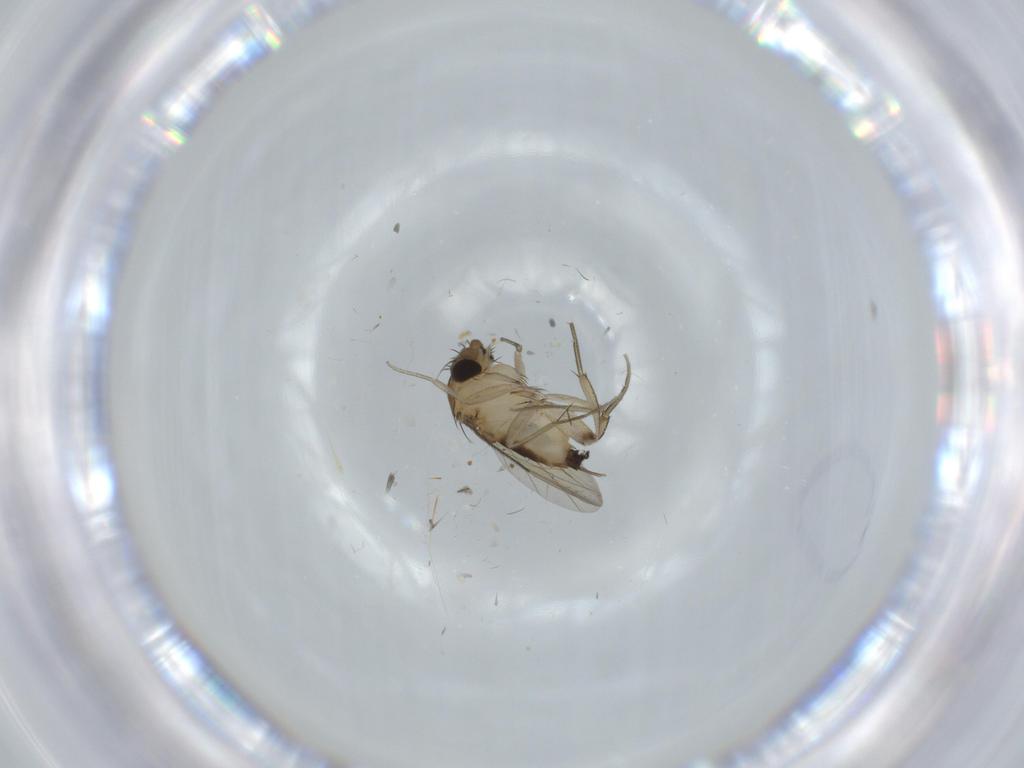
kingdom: Animalia
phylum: Arthropoda
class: Insecta
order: Diptera
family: Phoridae
